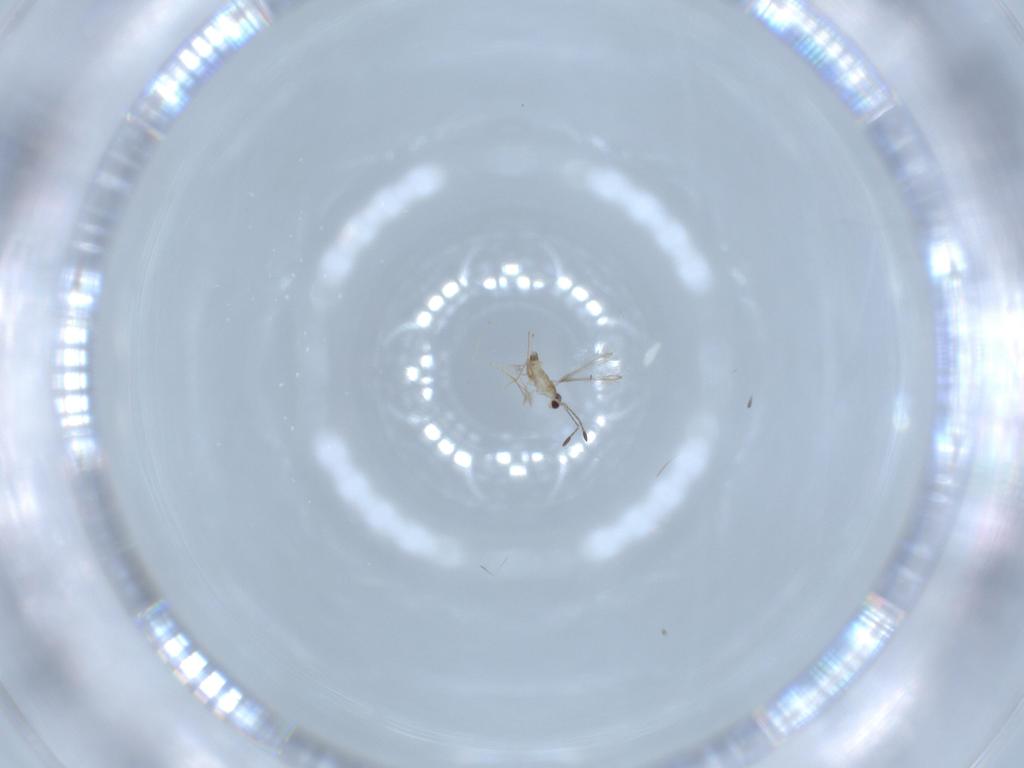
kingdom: Animalia
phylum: Arthropoda
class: Insecta
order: Hymenoptera
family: Mymaridae
